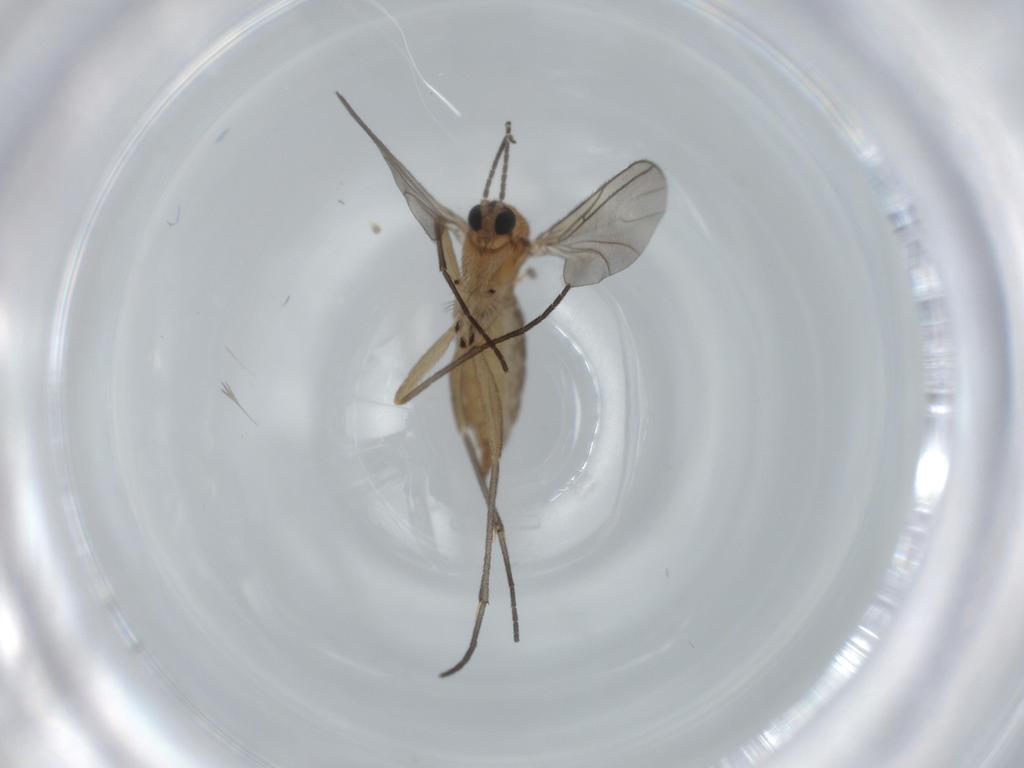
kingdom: Animalia
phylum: Arthropoda
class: Insecta
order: Diptera
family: Sciaridae
